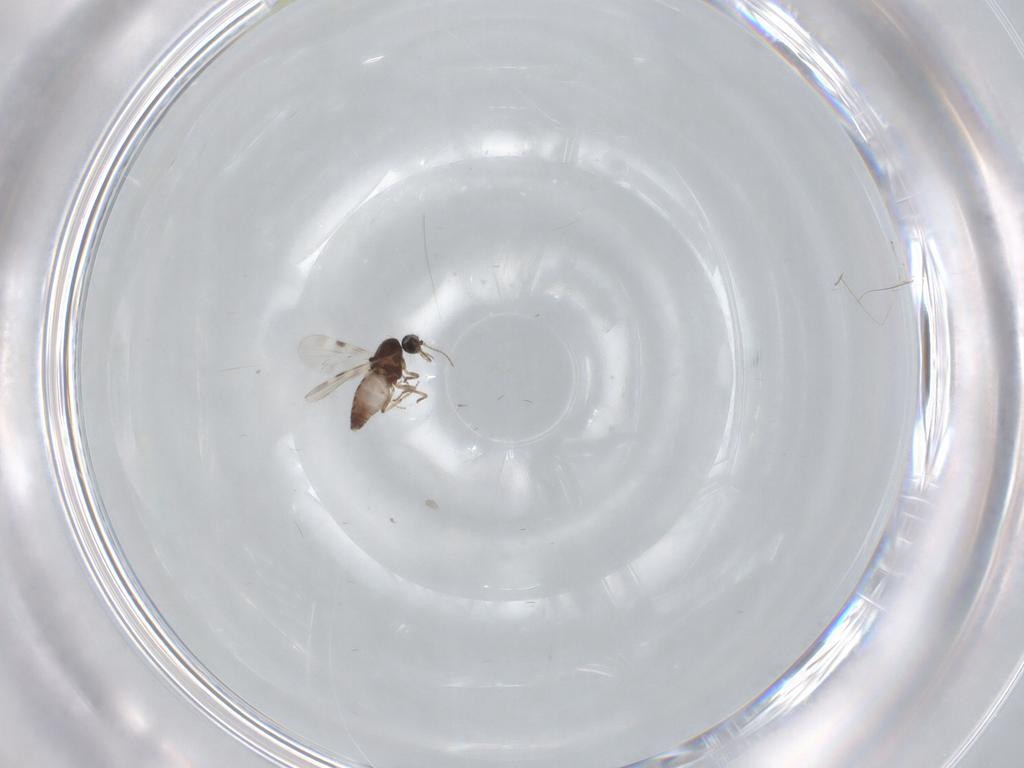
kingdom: Animalia
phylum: Arthropoda
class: Insecta
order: Diptera
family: Phoridae
